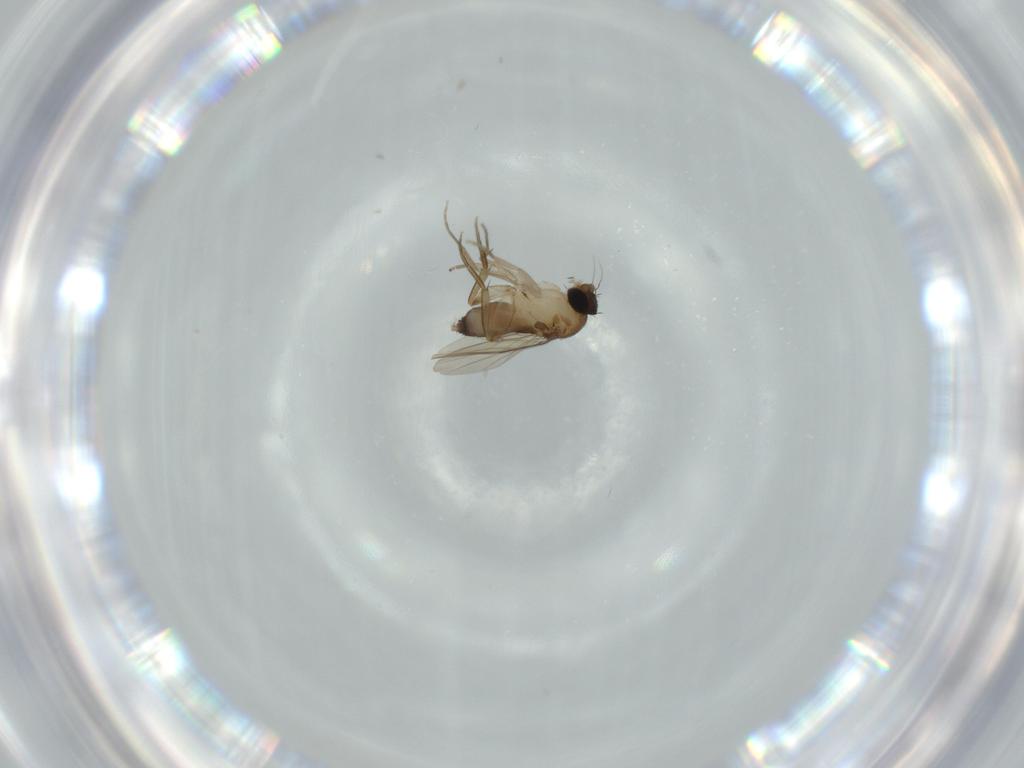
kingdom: Animalia
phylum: Arthropoda
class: Insecta
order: Diptera
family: Phoridae
